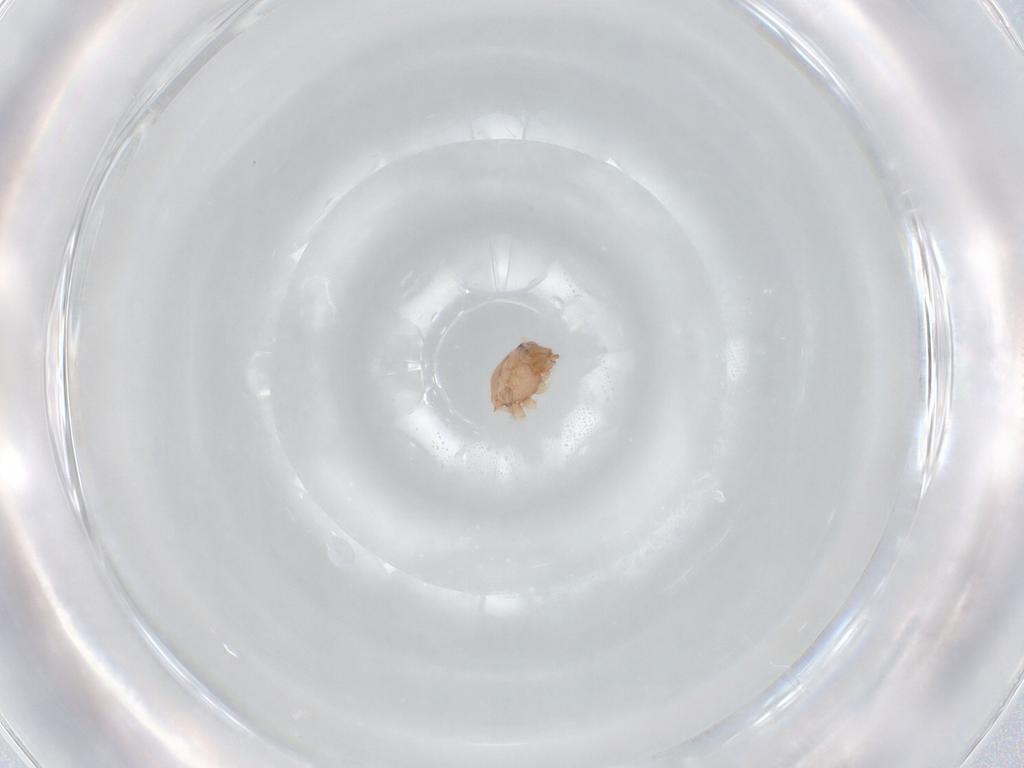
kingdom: Animalia
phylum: Arthropoda
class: Arachnida
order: Araneae
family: Idiopidae
